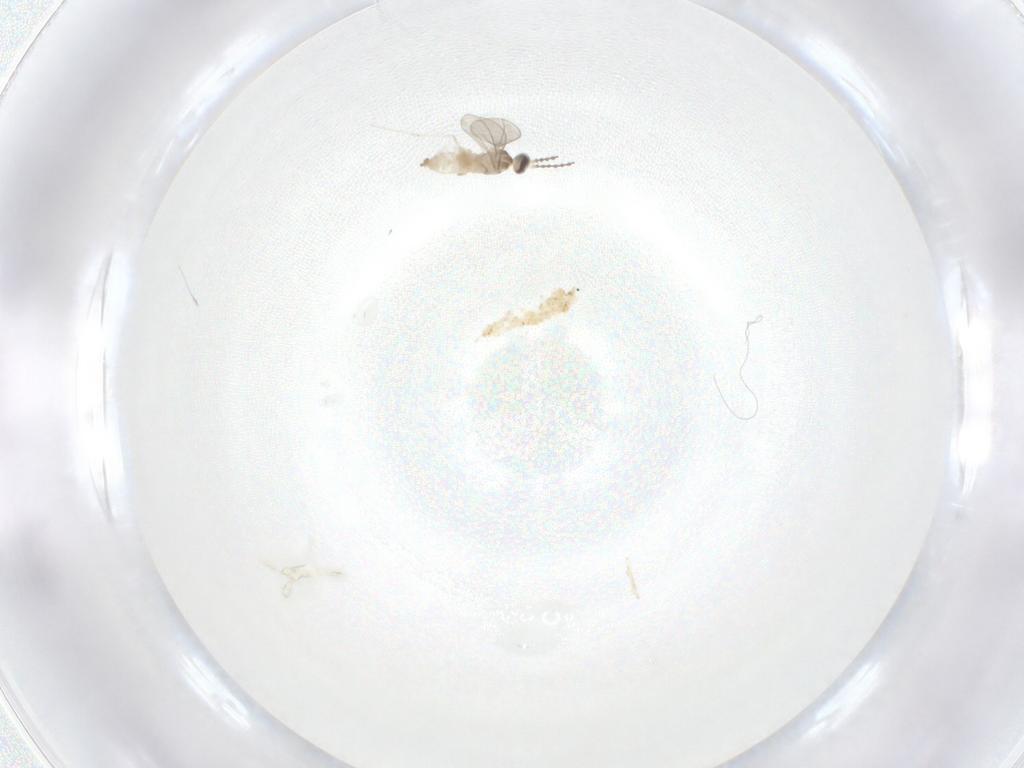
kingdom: Animalia
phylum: Arthropoda
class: Insecta
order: Diptera
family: Cecidomyiidae
